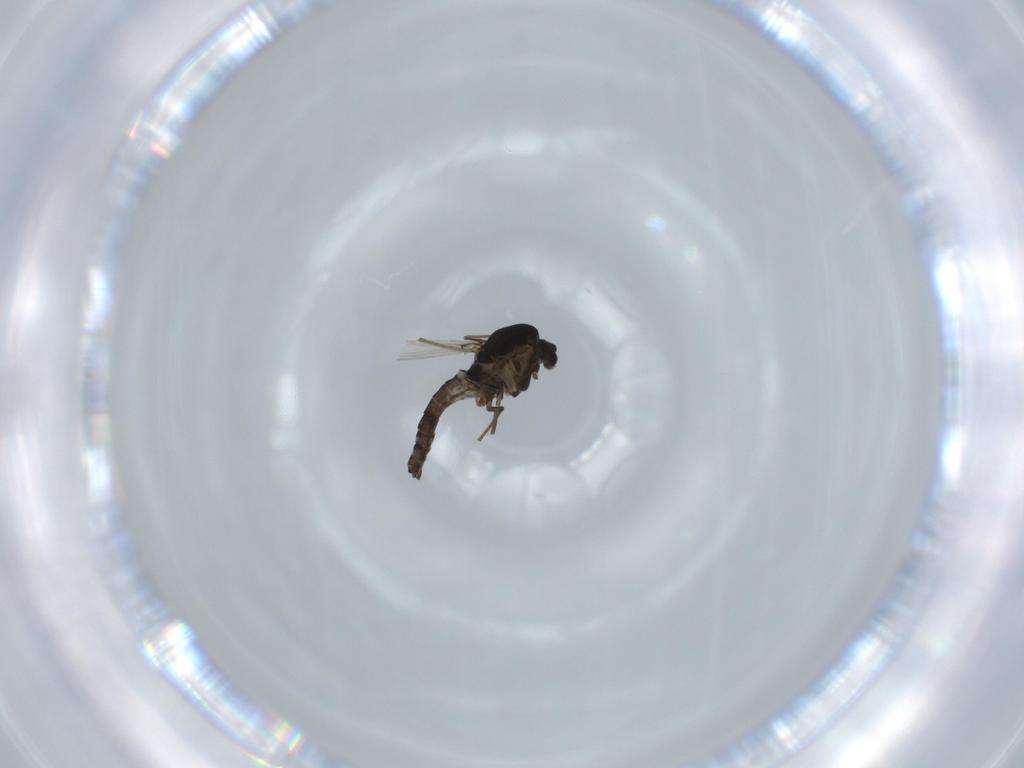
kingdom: Animalia
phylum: Arthropoda
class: Insecta
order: Diptera
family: Chironomidae
